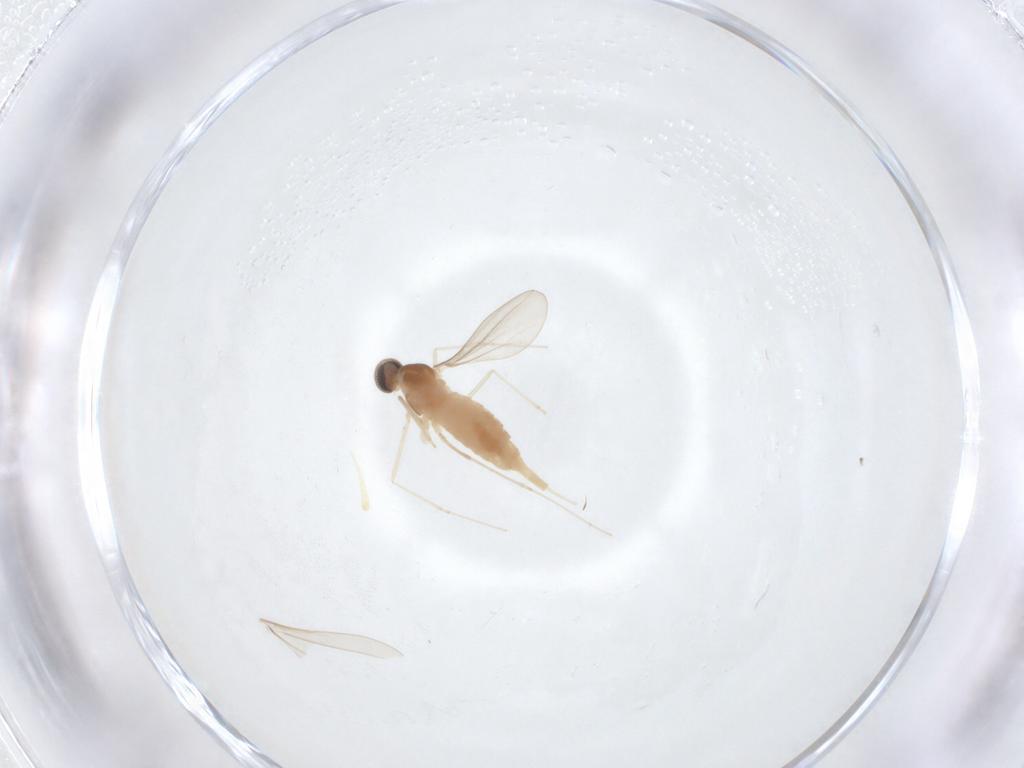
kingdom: Animalia
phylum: Arthropoda
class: Insecta
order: Diptera
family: Cecidomyiidae
